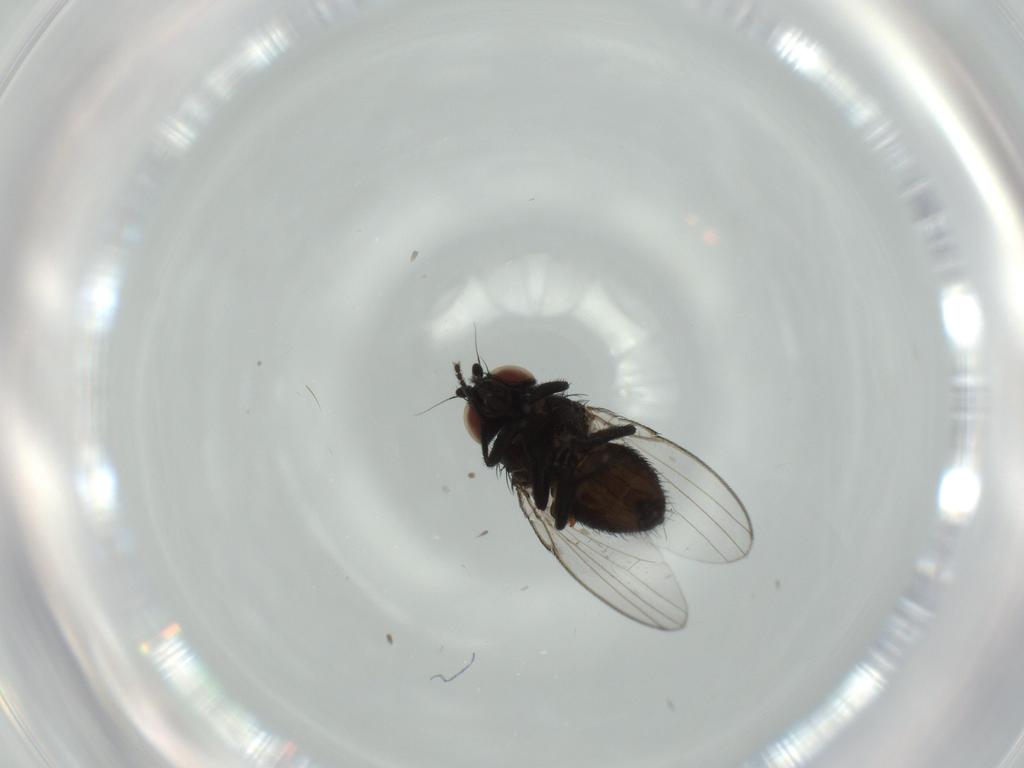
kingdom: Animalia
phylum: Arthropoda
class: Insecta
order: Diptera
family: Milichiidae
